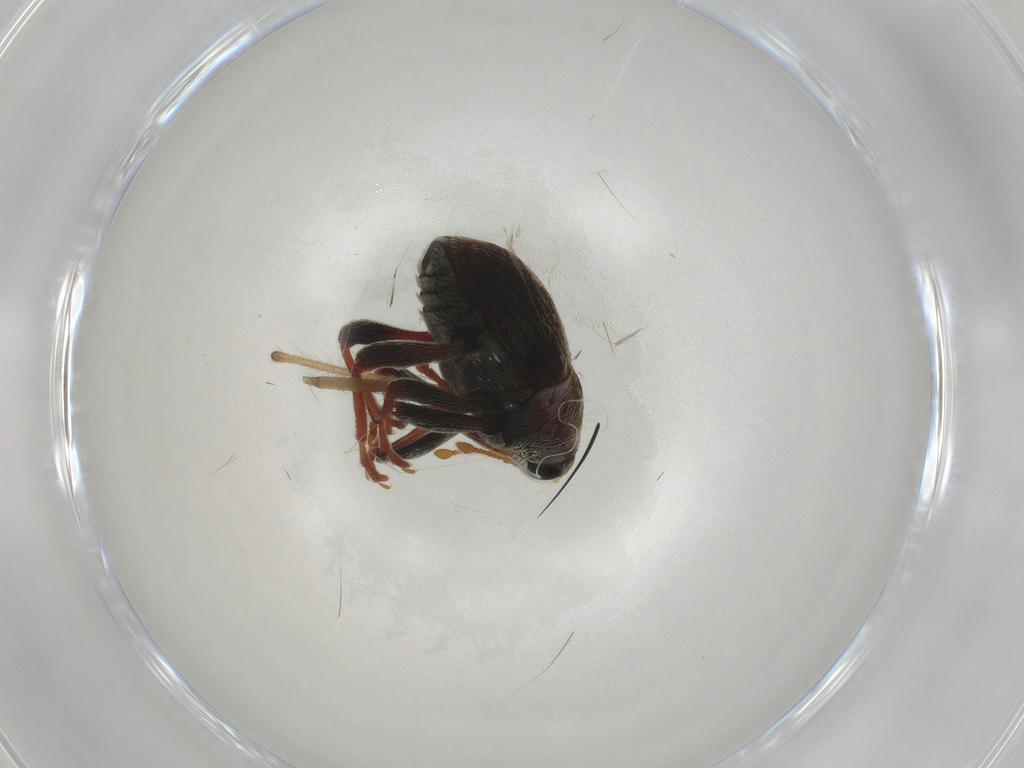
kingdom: Animalia
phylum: Arthropoda
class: Insecta
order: Coleoptera
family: Curculionidae
